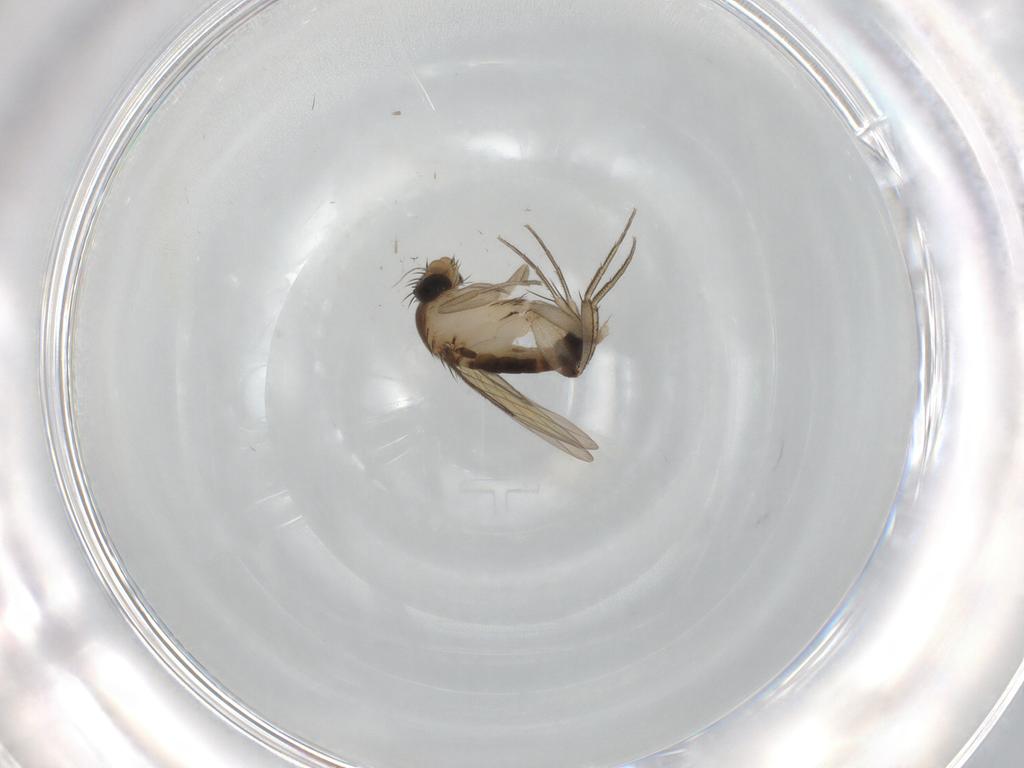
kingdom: Animalia
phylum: Arthropoda
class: Insecta
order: Diptera
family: Phoridae
